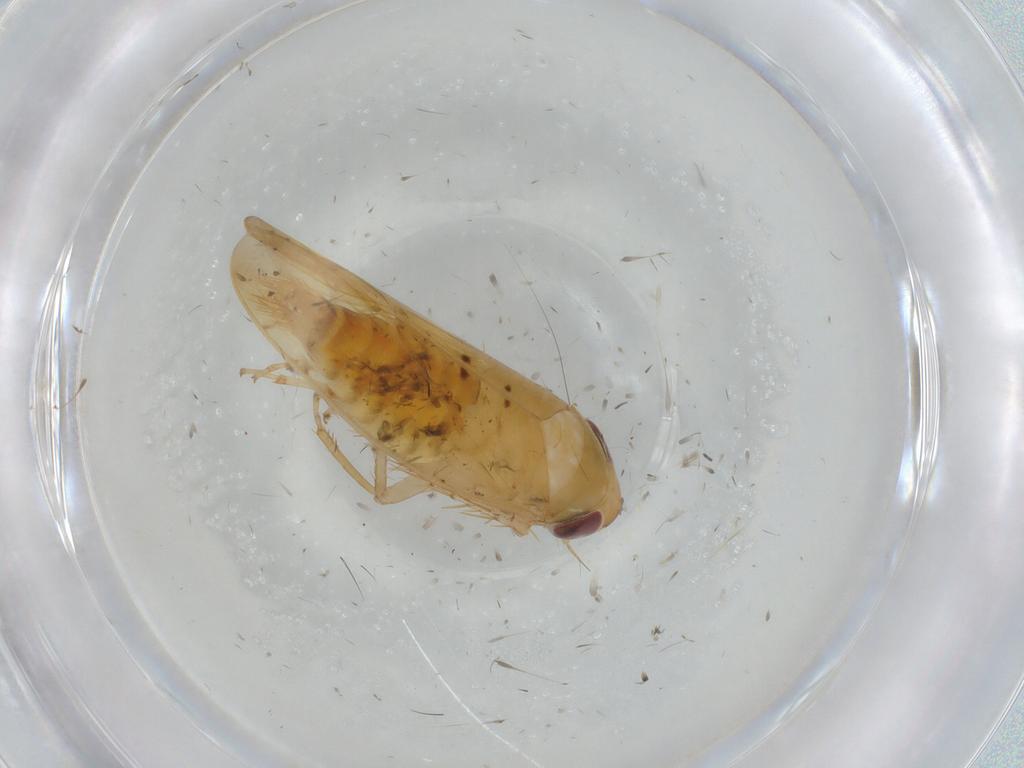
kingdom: Animalia
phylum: Arthropoda
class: Insecta
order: Hemiptera
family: Cicadellidae
